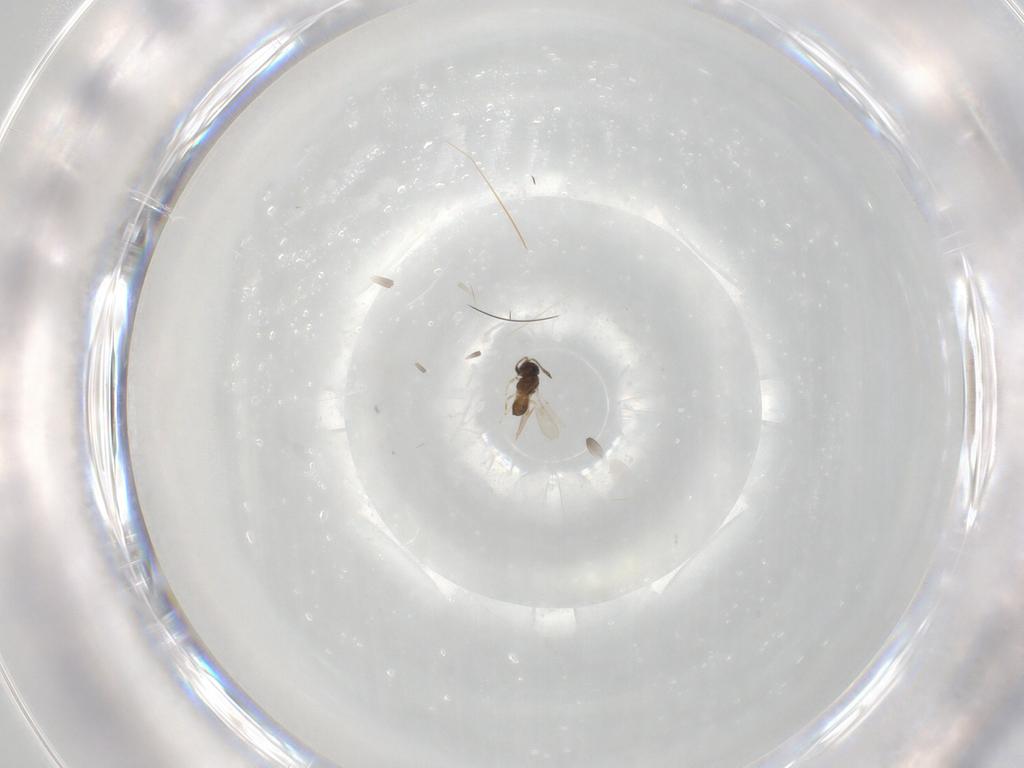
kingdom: Animalia
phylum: Arthropoda
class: Insecta
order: Hymenoptera
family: Scelionidae
